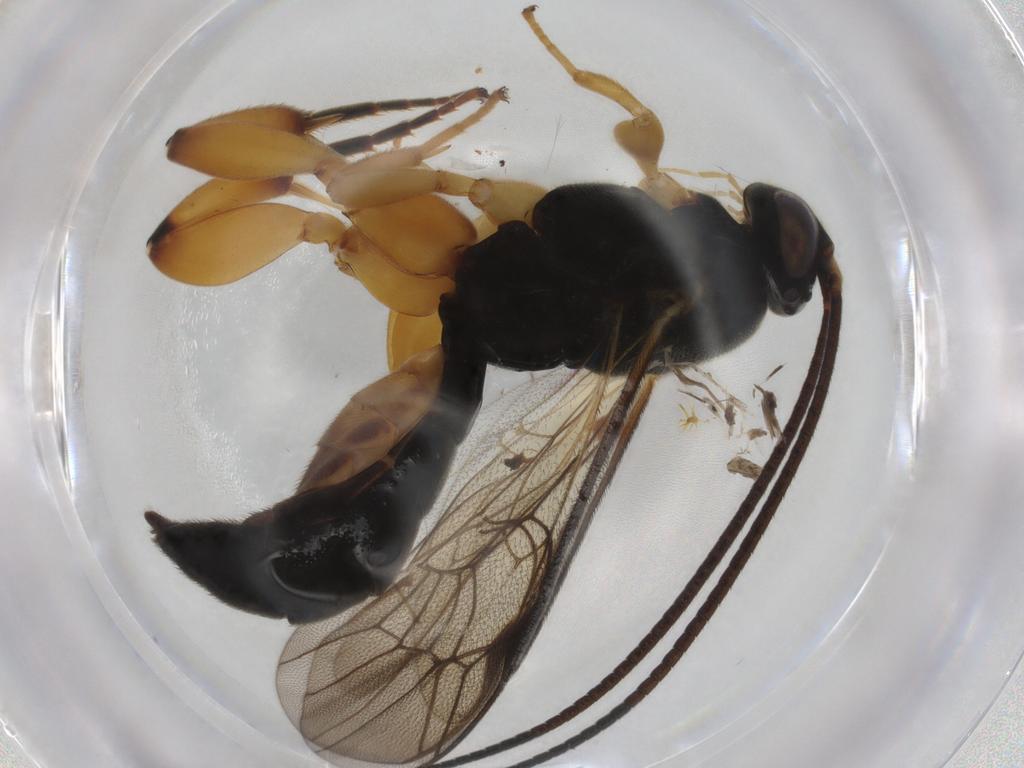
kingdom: Animalia
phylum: Arthropoda
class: Insecta
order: Hymenoptera
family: Ichneumonidae
